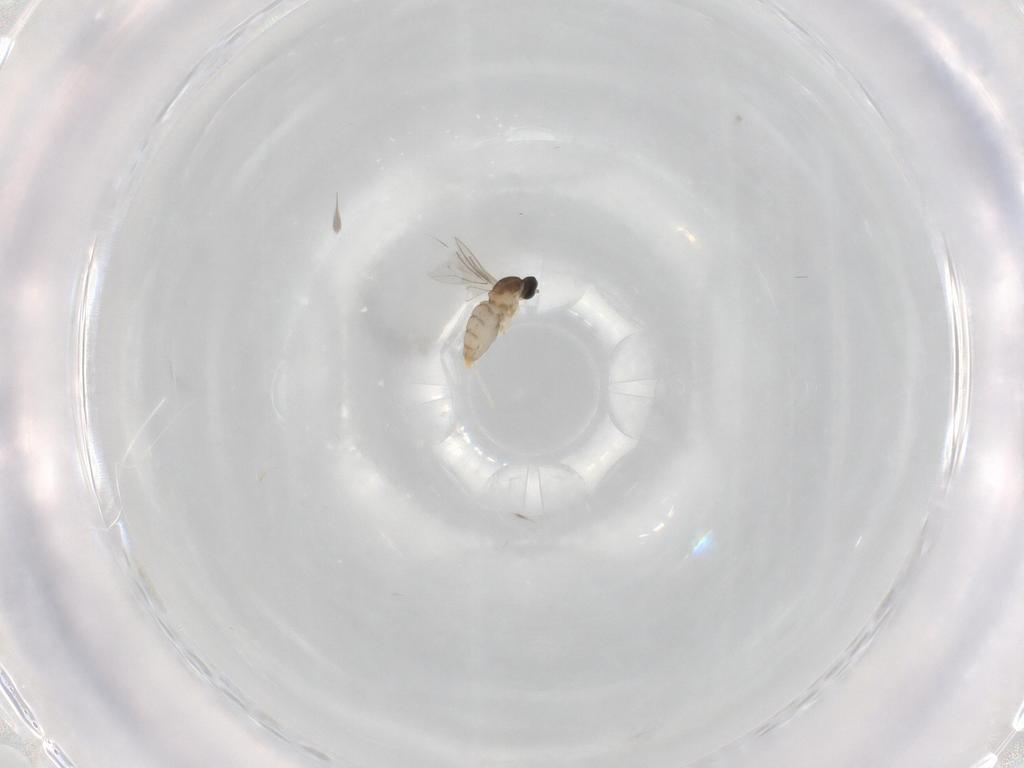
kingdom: Animalia
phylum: Arthropoda
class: Insecta
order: Diptera
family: Cecidomyiidae
